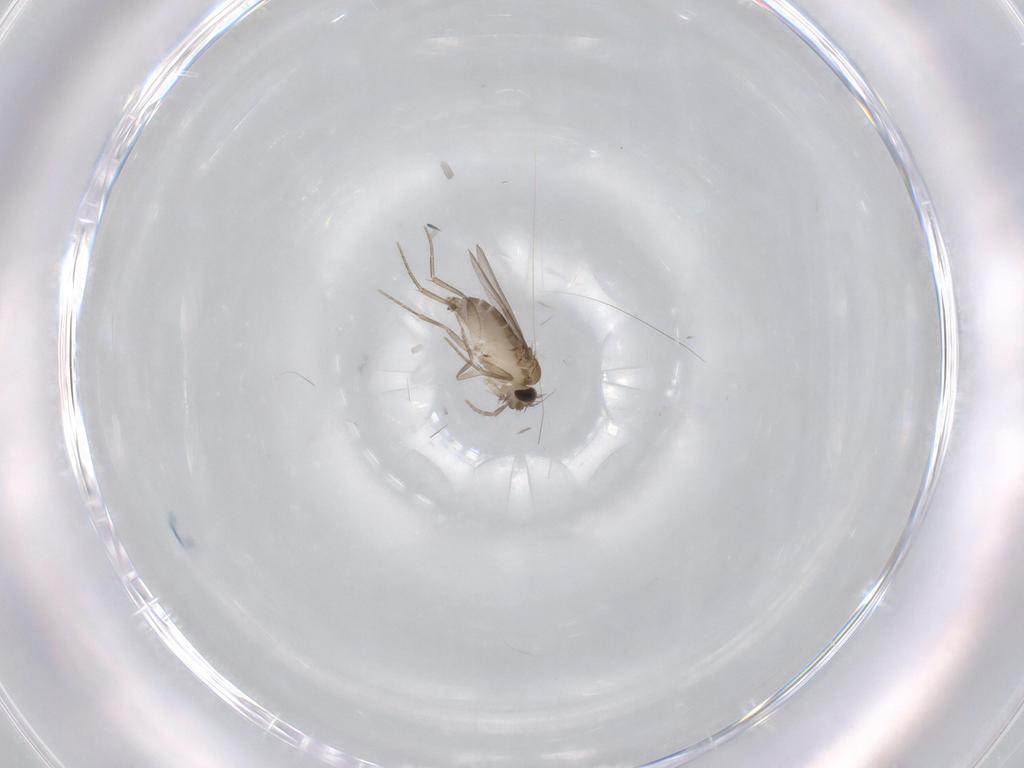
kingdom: Animalia
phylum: Arthropoda
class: Insecta
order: Diptera
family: Phoridae
